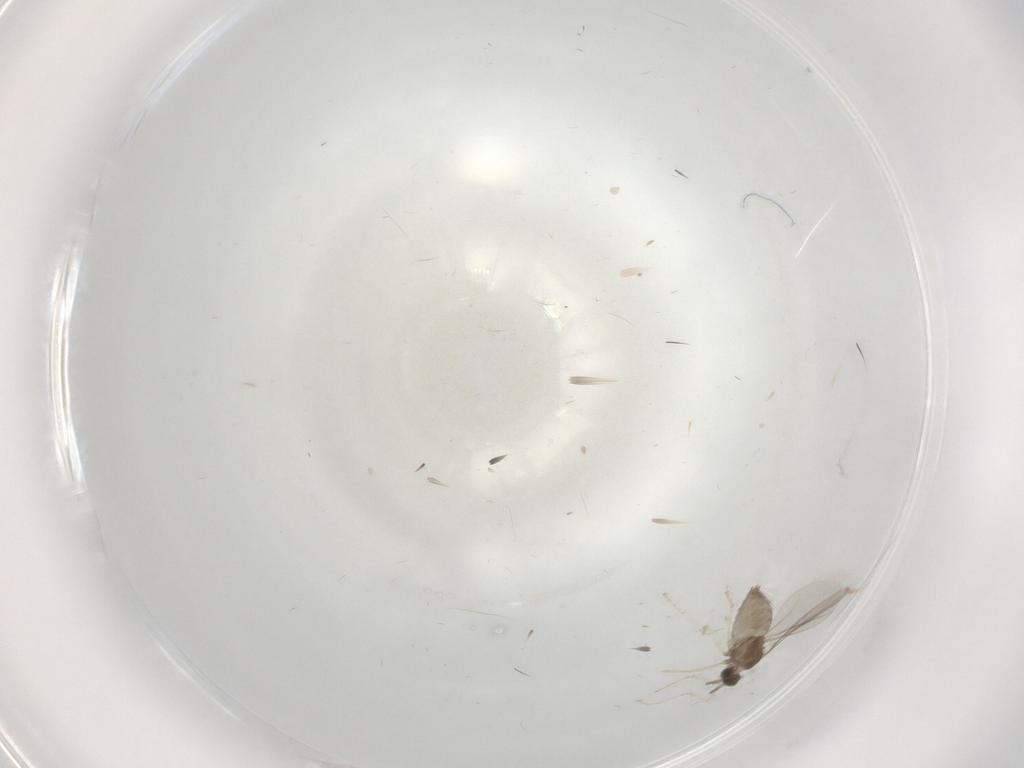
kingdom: Animalia
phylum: Arthropoda
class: Insecta
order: Diptera
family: Cecidomyiidae
